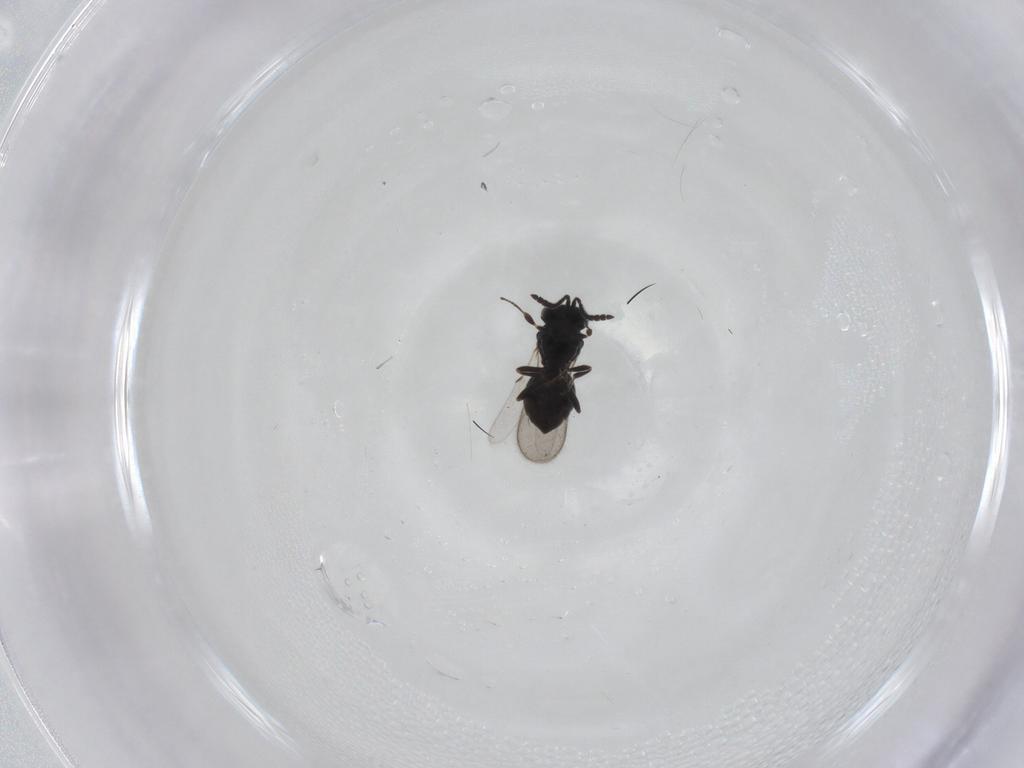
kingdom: Animalia
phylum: Arthropoda
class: Insecta
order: Hymenoptera
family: Scelionidae
